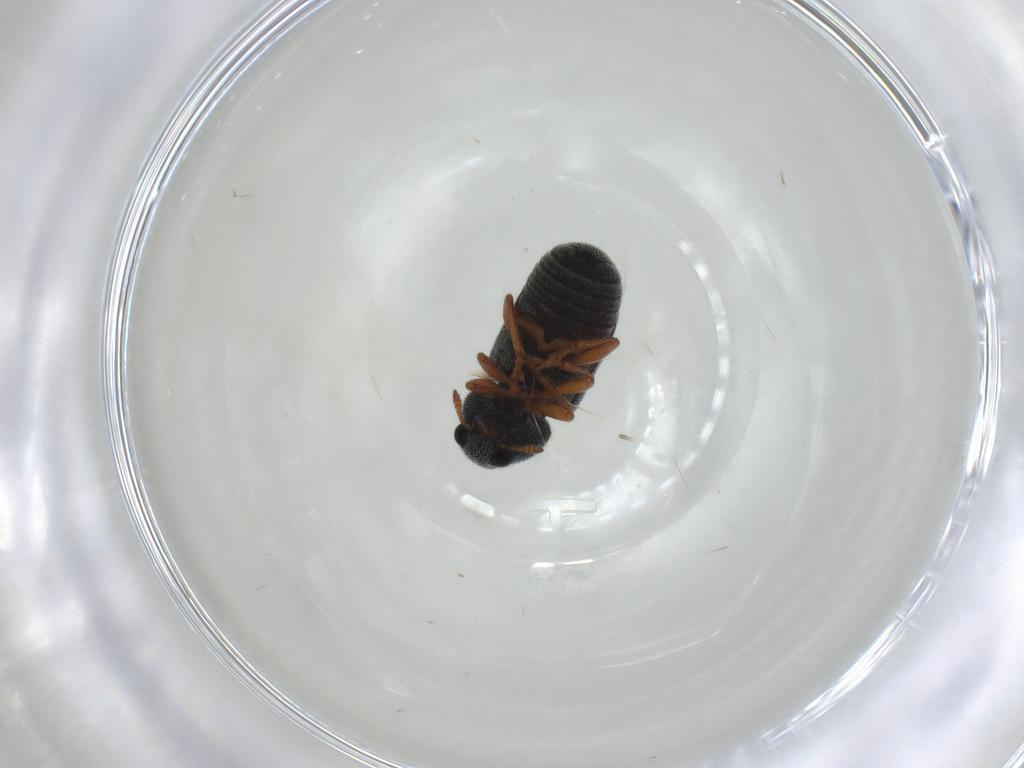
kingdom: Animalia
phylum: Arthropoda
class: Insecta
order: Coleoptera
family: Anthribidae
